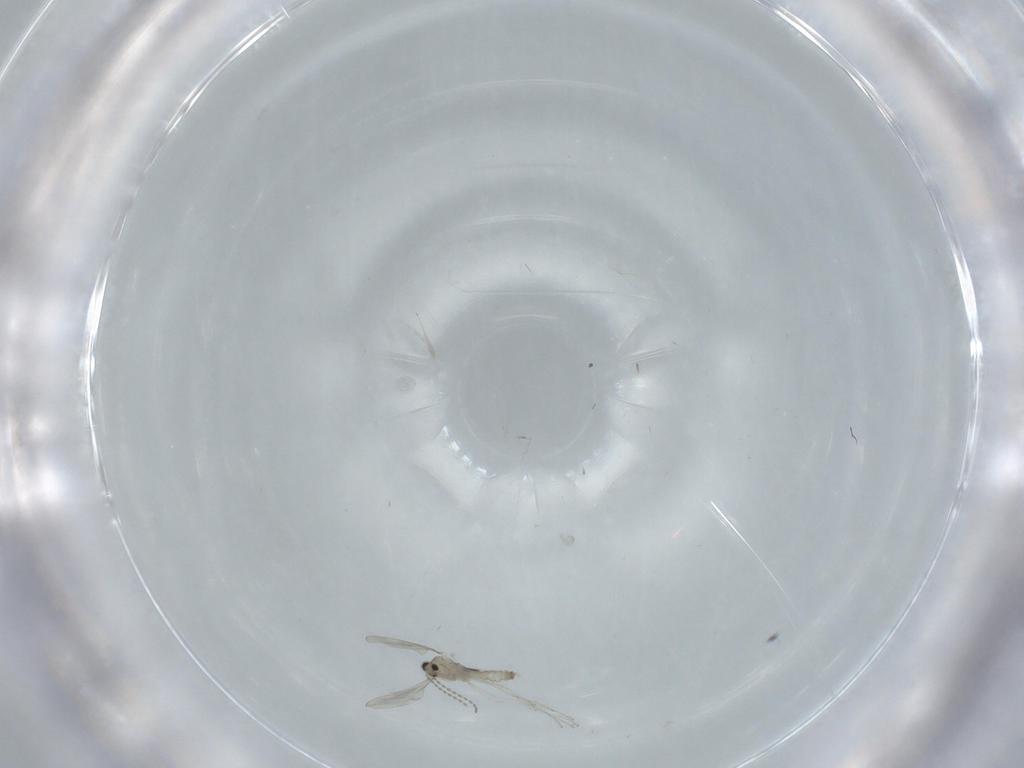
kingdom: Animalia
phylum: Arthropoda
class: Insecta
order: Diptera
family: Cecidomyiidae
